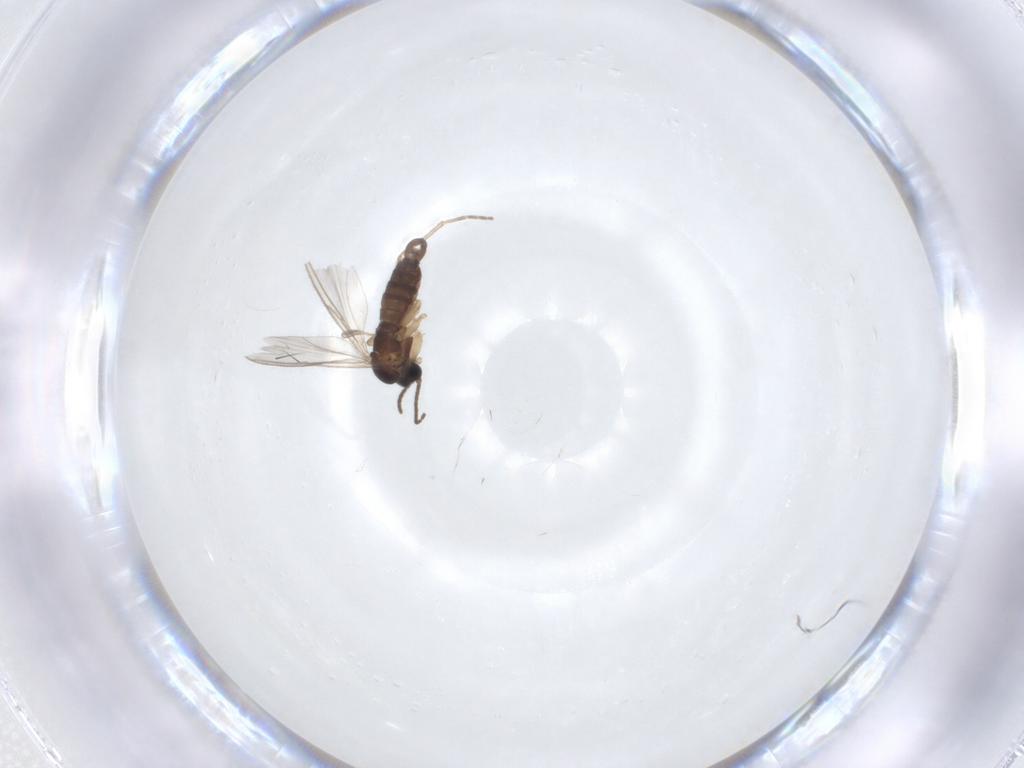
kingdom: Animalia
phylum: Arthropoda
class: Insecta
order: Diptera
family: Sciaridae
